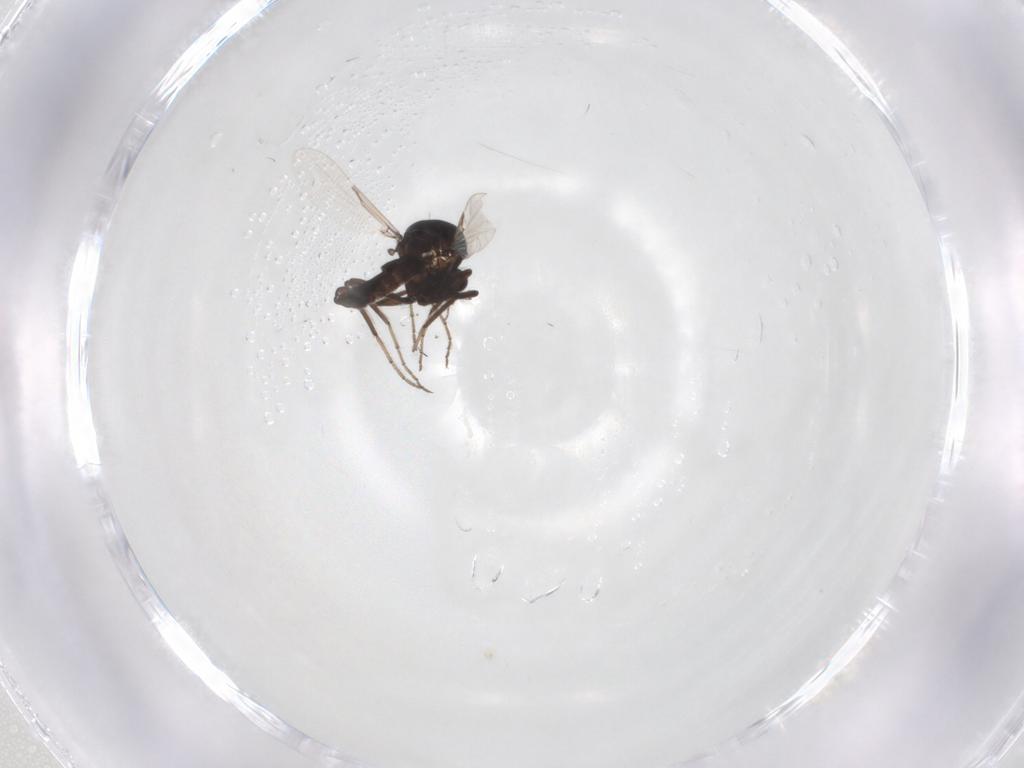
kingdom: Animalia
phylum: Arthropoda
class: Insecta
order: Diptera
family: Ceratopogonidae
